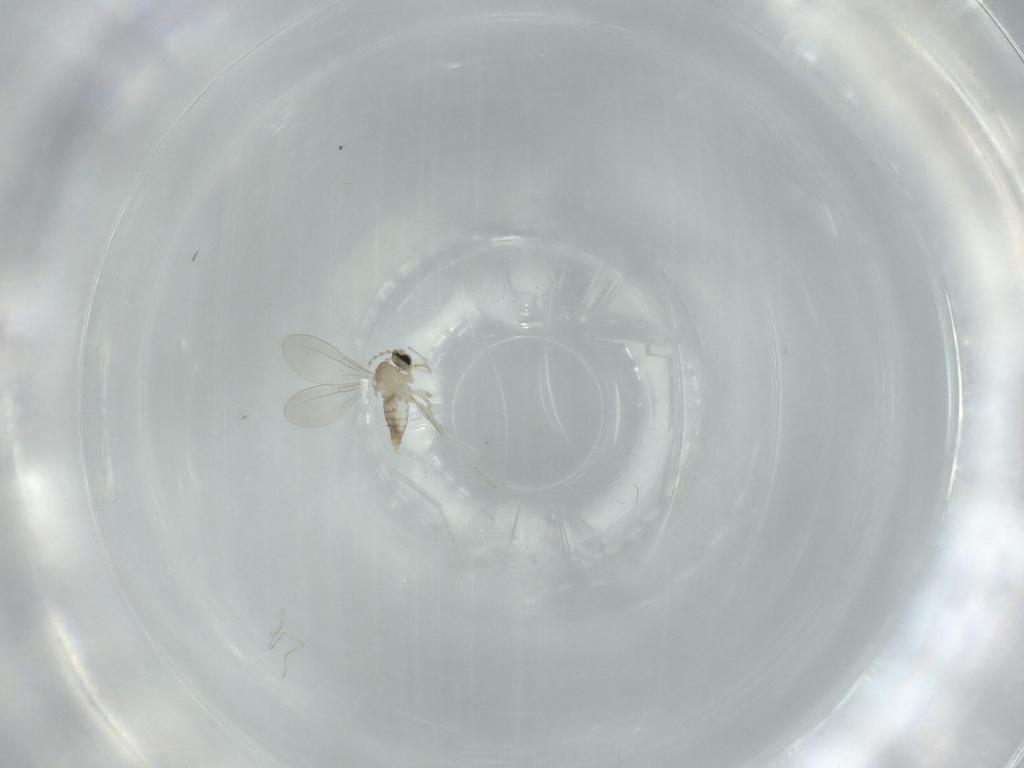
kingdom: Animalia
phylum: Arthropoda
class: Insecta
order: Diptera
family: Cecidomyiidae
